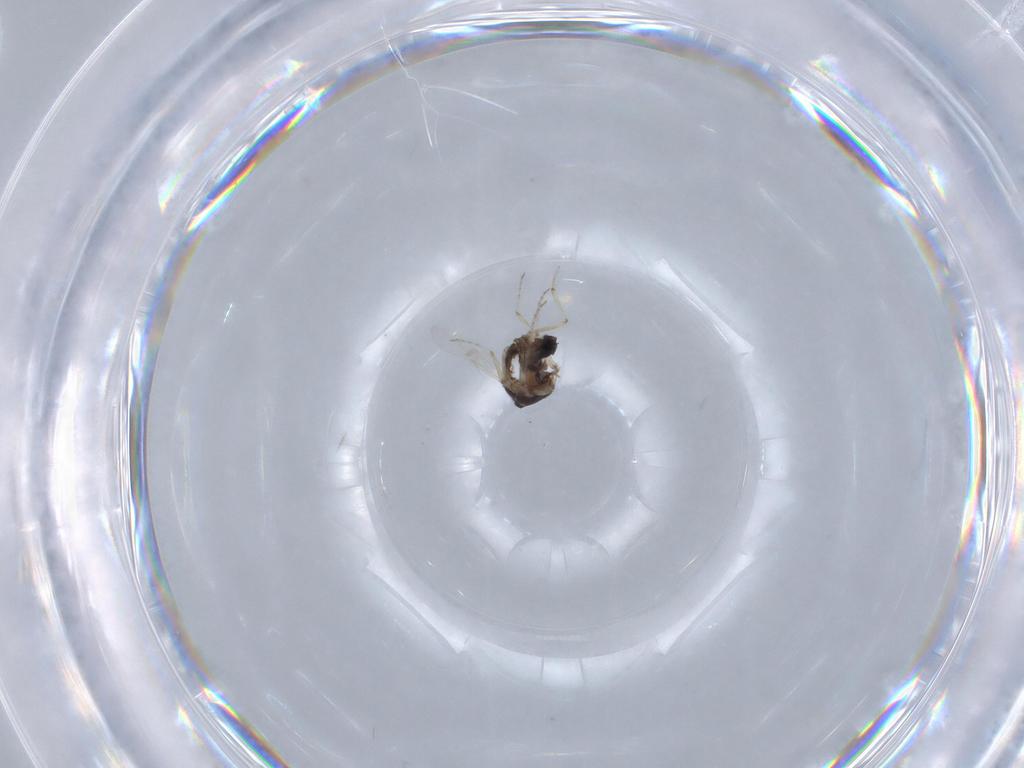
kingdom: Animalia
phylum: Arthropoda
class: Insecta
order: Diptera
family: Ceratopogonidae
